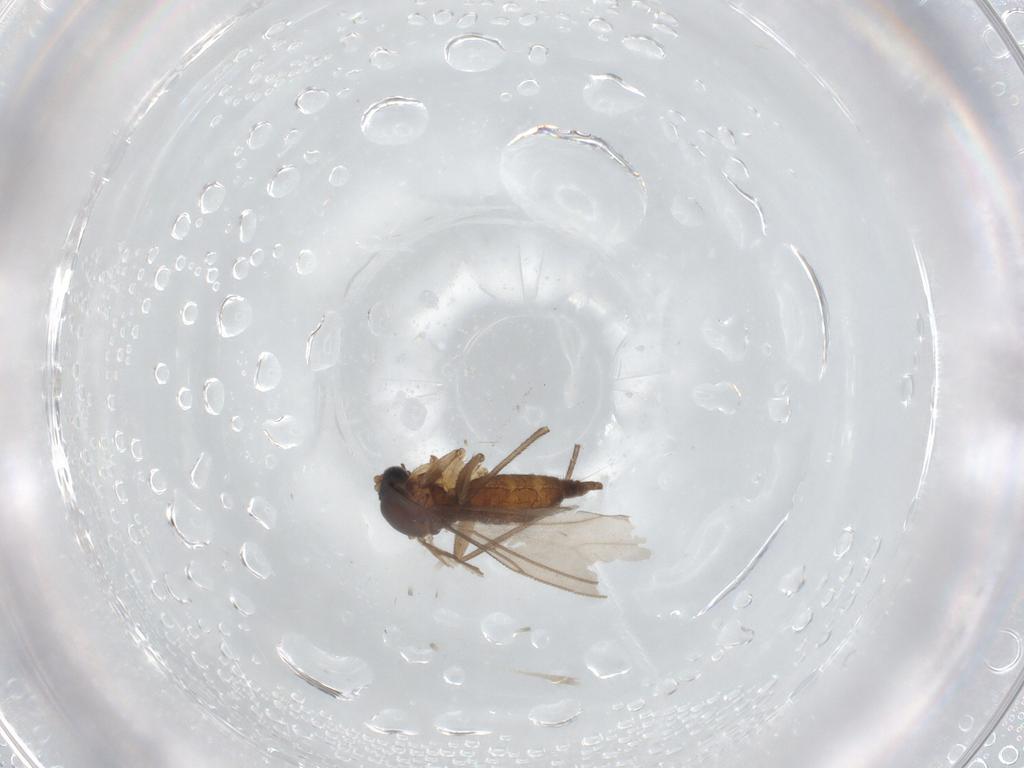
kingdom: Animalia
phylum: Arthropoda
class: Insecta
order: Diptera
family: Sciaridae
